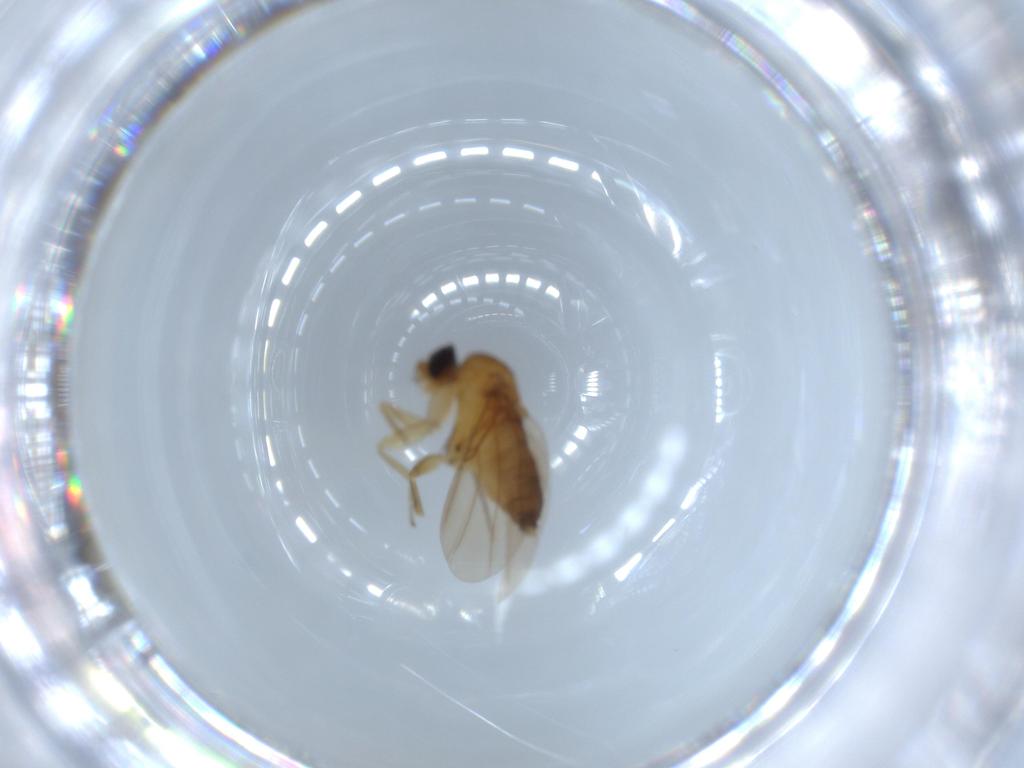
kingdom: Animalia
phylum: Arthropoda
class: Insecta
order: Diptera
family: Phoridae
